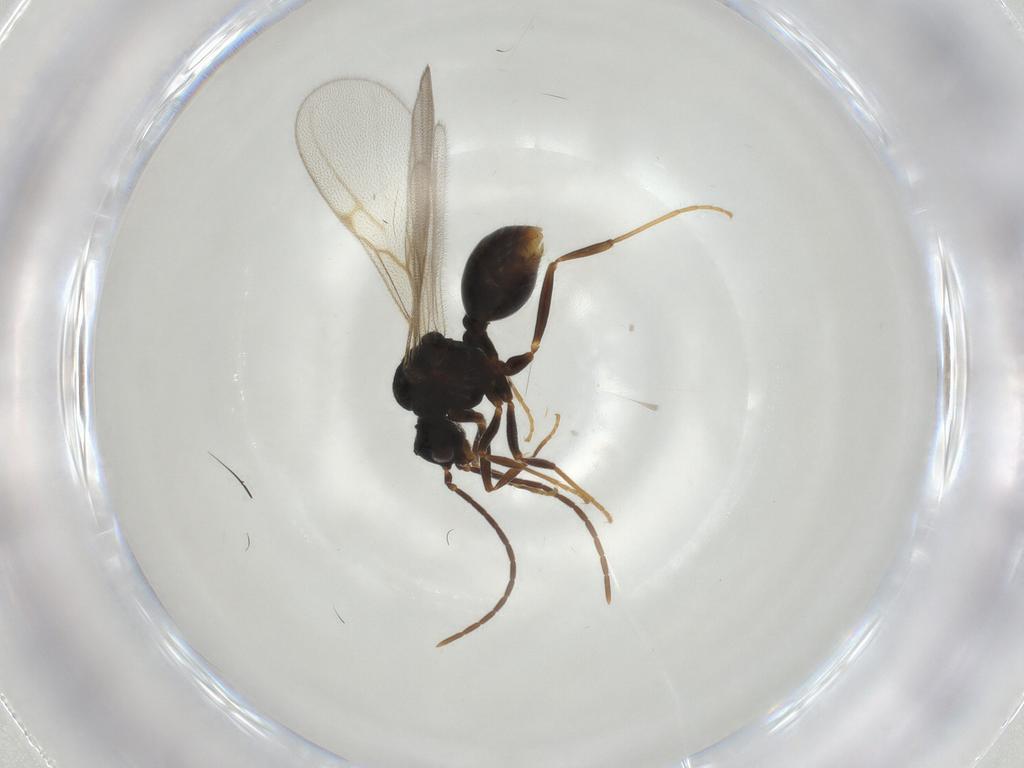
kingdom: Animalia
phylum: Arthropoda
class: Insecta
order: Hymenoptera
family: Formicidae
